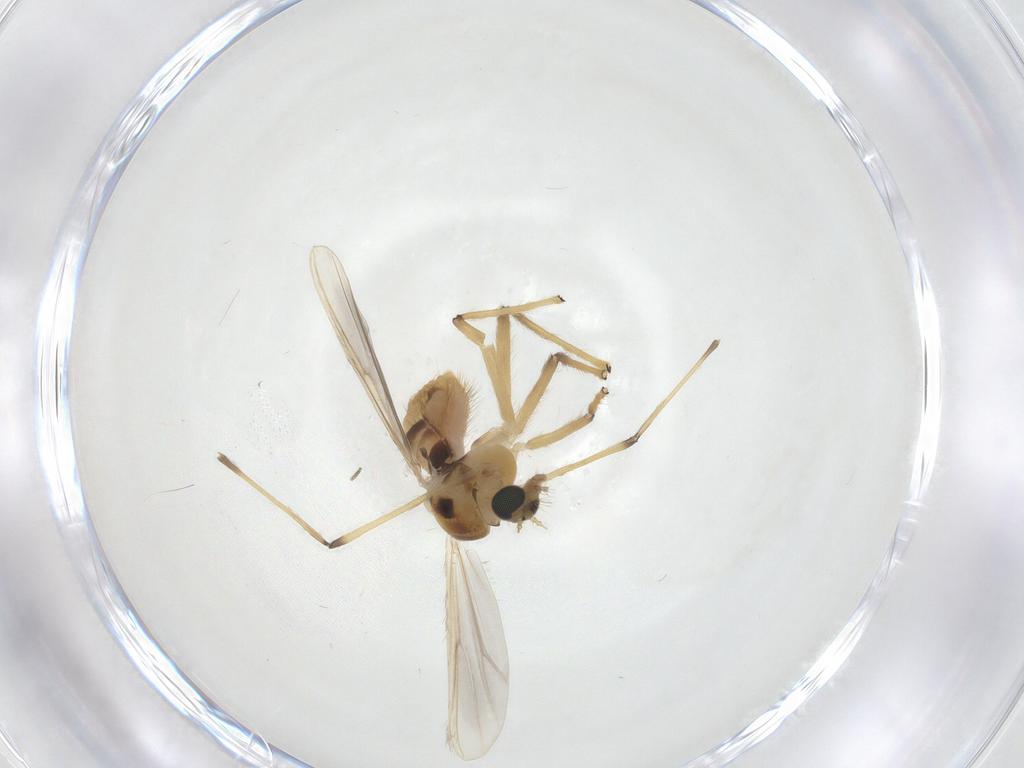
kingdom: Animalia
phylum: Arthropoda
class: Insecta
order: Diptera
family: Chironomidae
